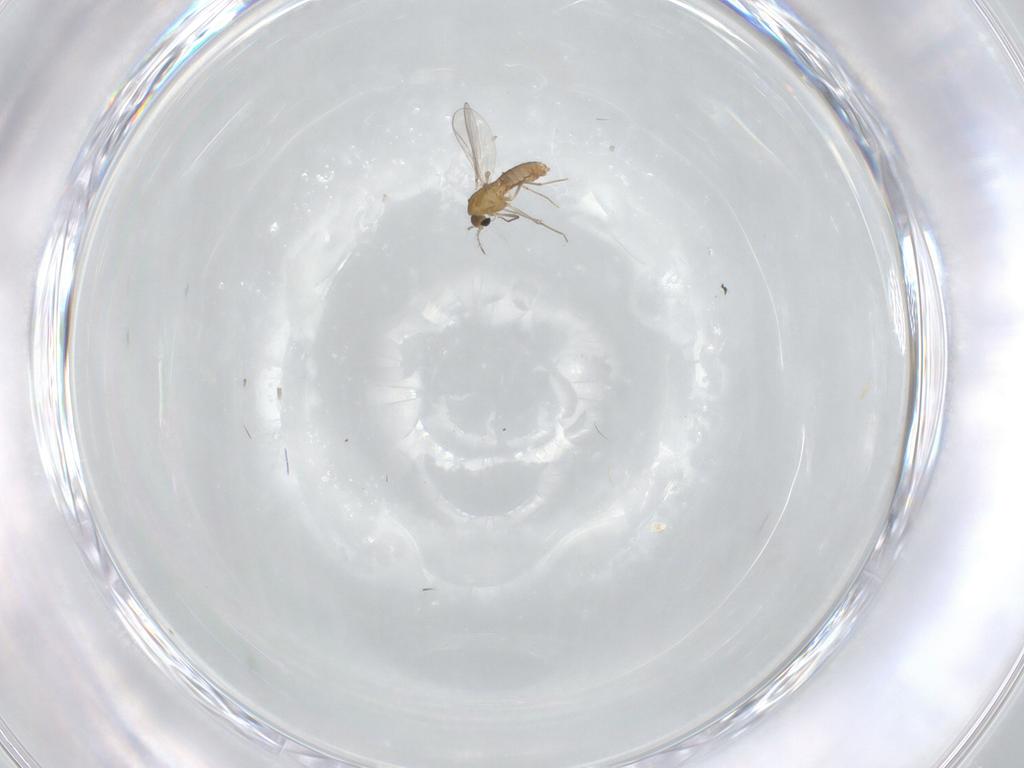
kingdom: Animalia
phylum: Arthropoda
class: Insecta
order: Diptera
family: Chironomidae
